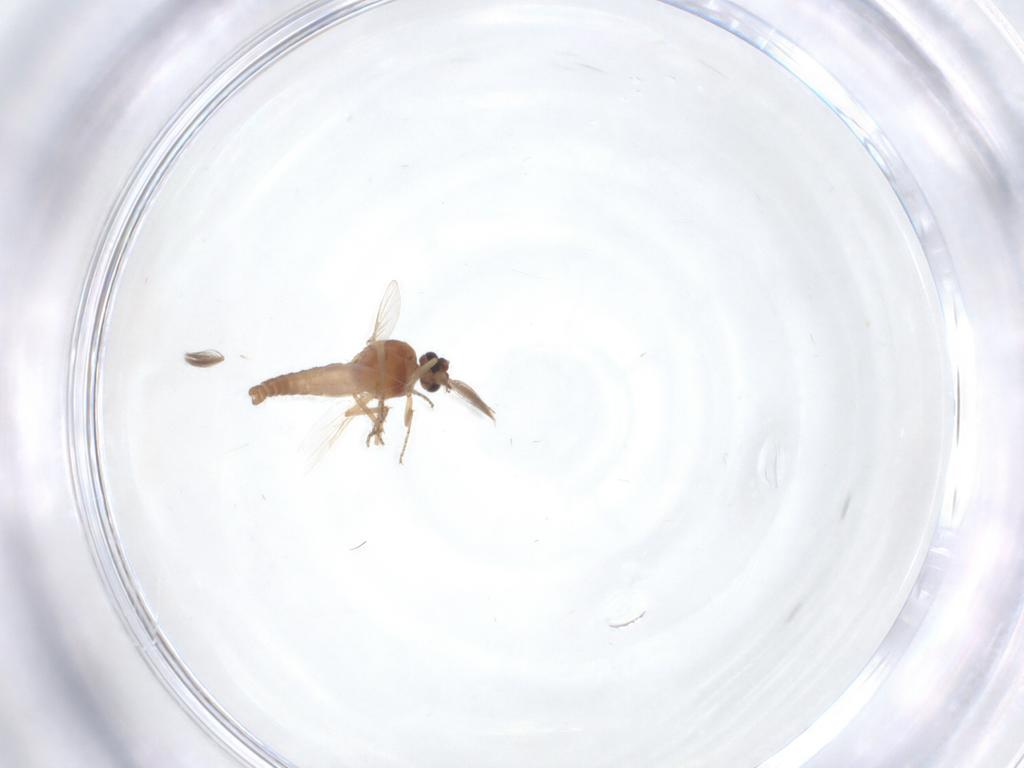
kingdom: Animalia
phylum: Arthropoda
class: Insecta
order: Diptera
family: Ceratopogonidae
